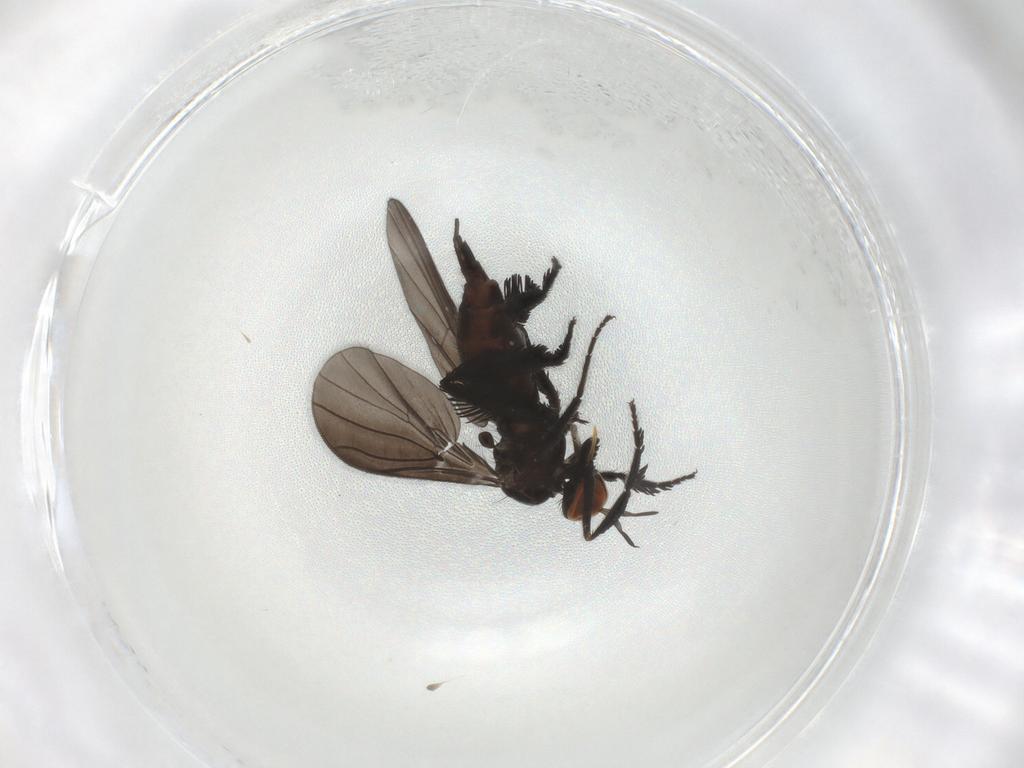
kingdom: Animalia
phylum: Arthropoda
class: Insecta
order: Diptera
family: Empididae
